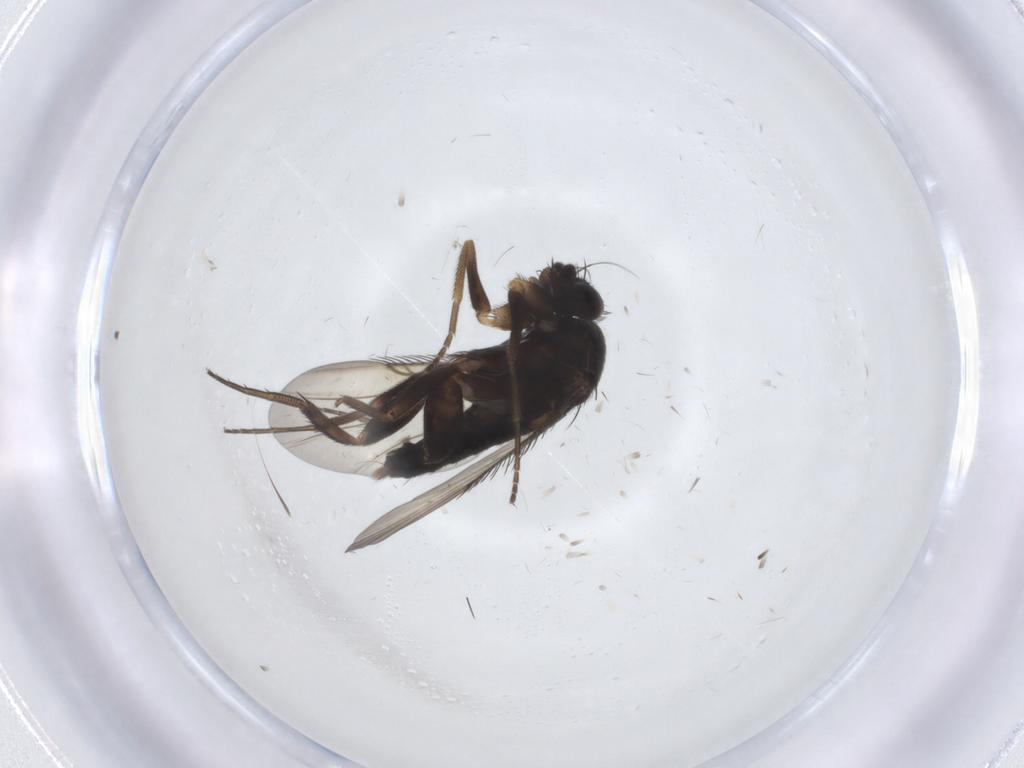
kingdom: Animalia
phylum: Arthropoda
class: Insecta
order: Diptera
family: Phoridae
